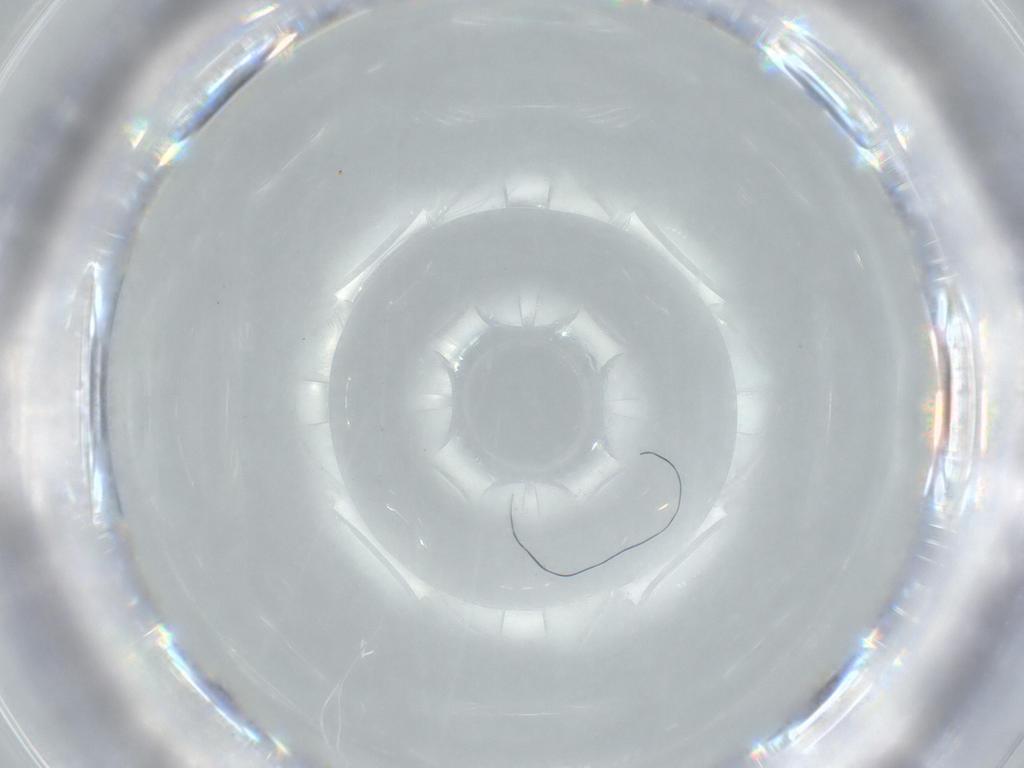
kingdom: Animalia
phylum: Arthropoda
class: Insecta
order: Diptera
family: Sciaridae
